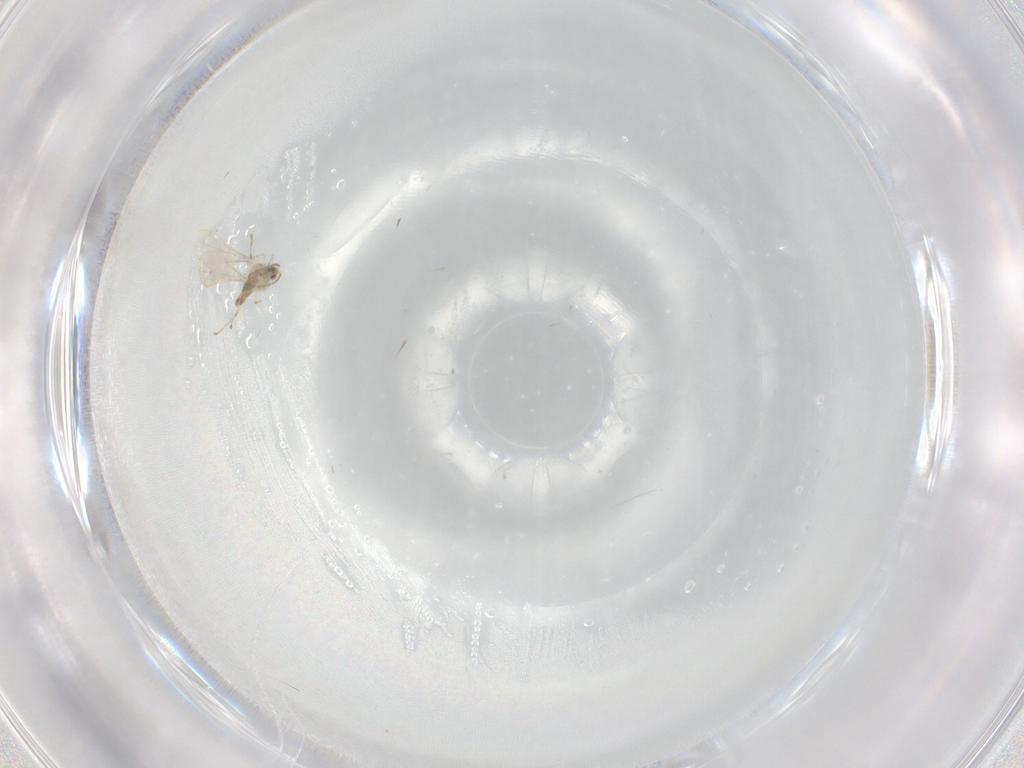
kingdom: Animalia
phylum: Arthropoda
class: Insecta
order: Diptera
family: Cecidomyiidae
